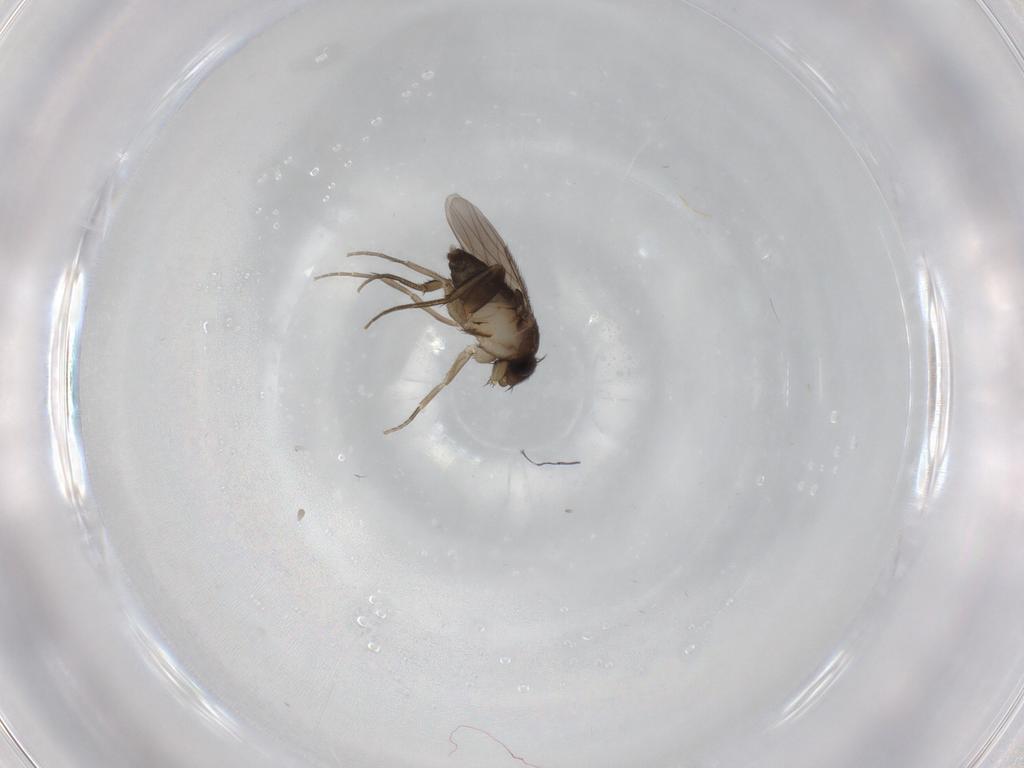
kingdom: Animalia
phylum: Arthropoda
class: Insecta
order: Diptera
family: Phoridae
